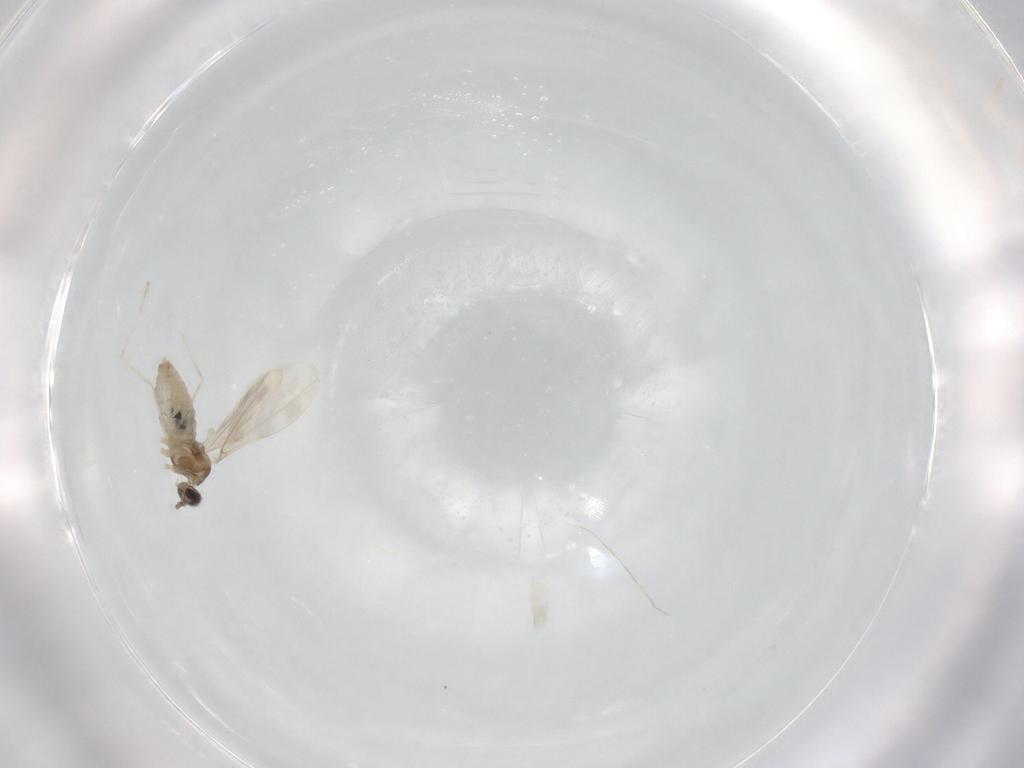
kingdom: Animalia
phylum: Arthropoda
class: Insecta
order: Diptera
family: Cecidomyiidae
